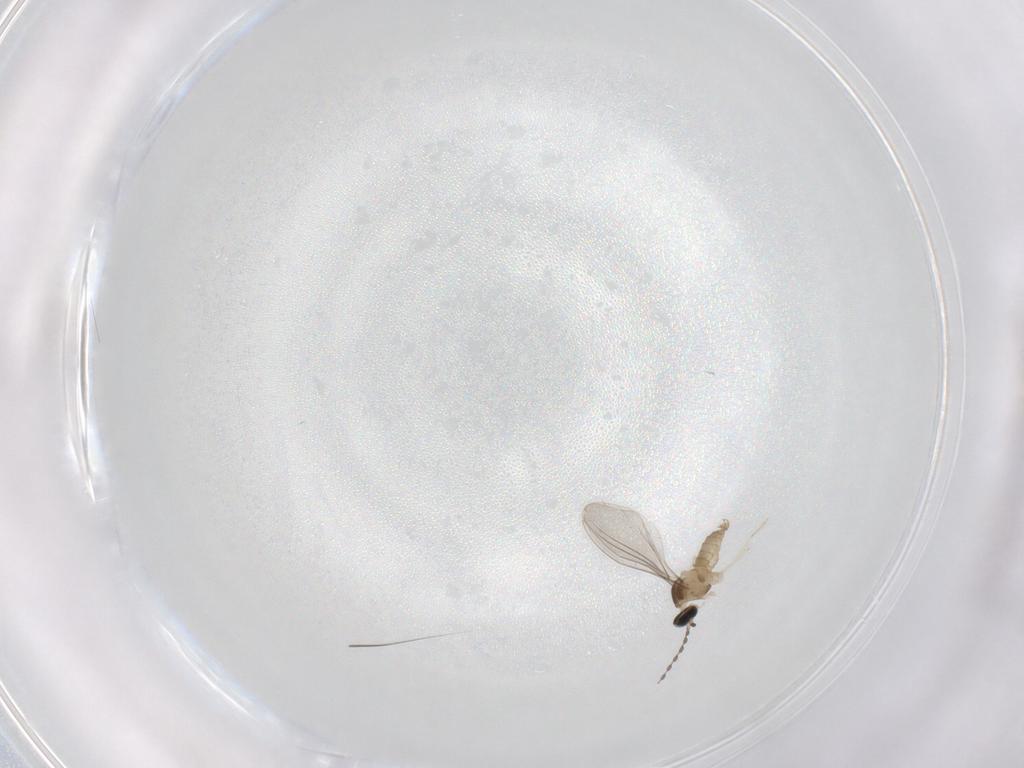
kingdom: Animalia
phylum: Arthropoda
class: Insecta
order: Diptera
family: Cecidomyiidae
